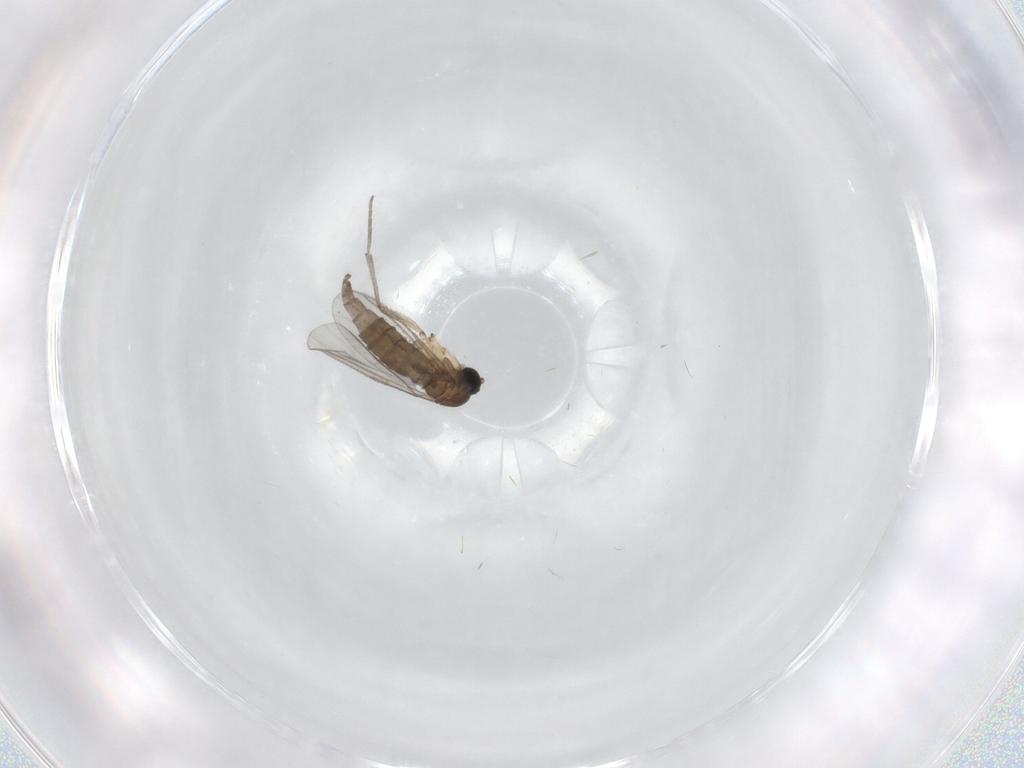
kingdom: Animalia
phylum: Arthropoda
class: Insecta
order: Diptera
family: Sciaridae
